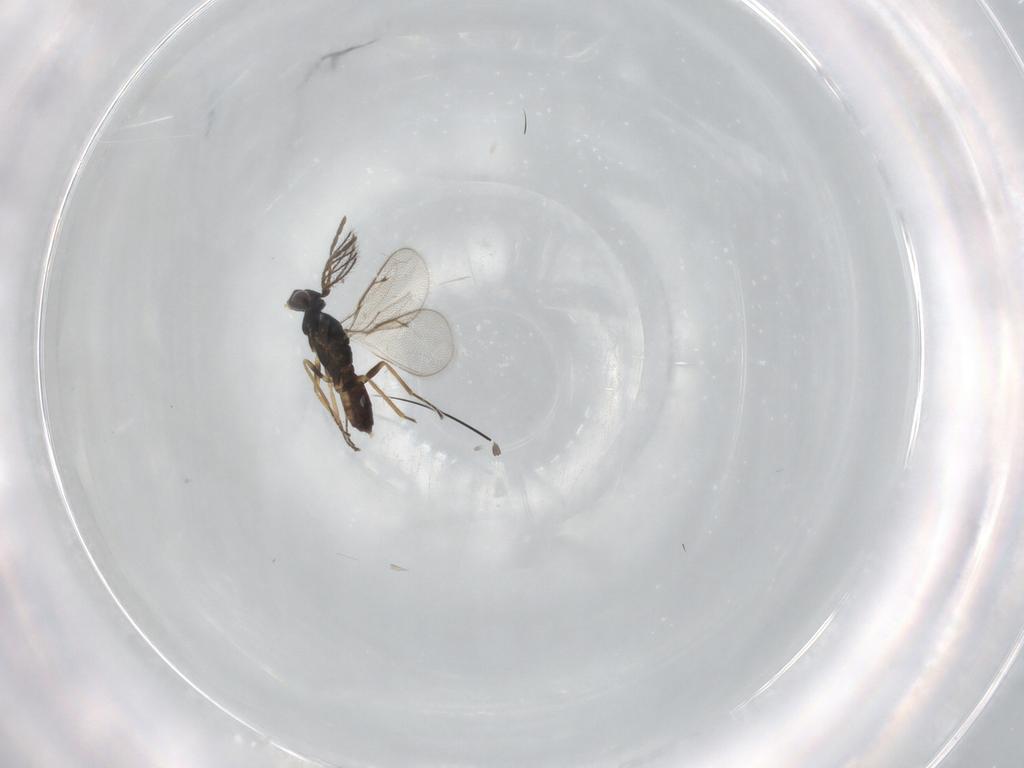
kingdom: Animalia
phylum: Arthropoda
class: Insecta
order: Hymenoptera
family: Eulophidae
